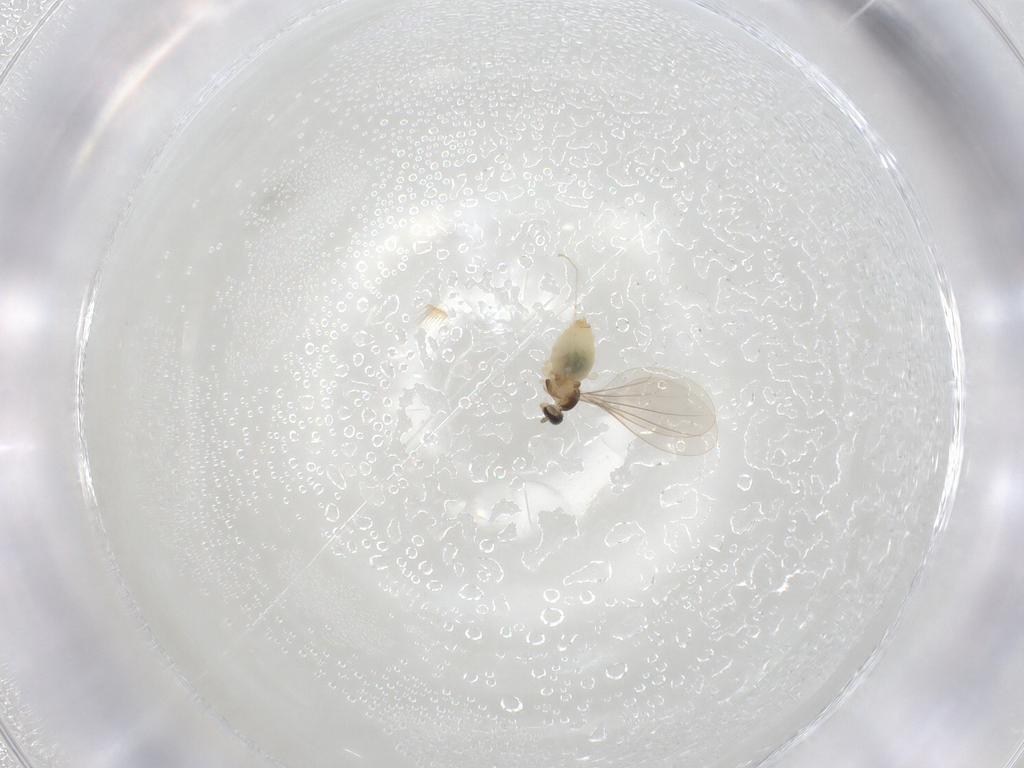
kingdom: Animalia
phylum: Arthropoda
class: Insecta
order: Diptera
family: Cecidomyiidae
